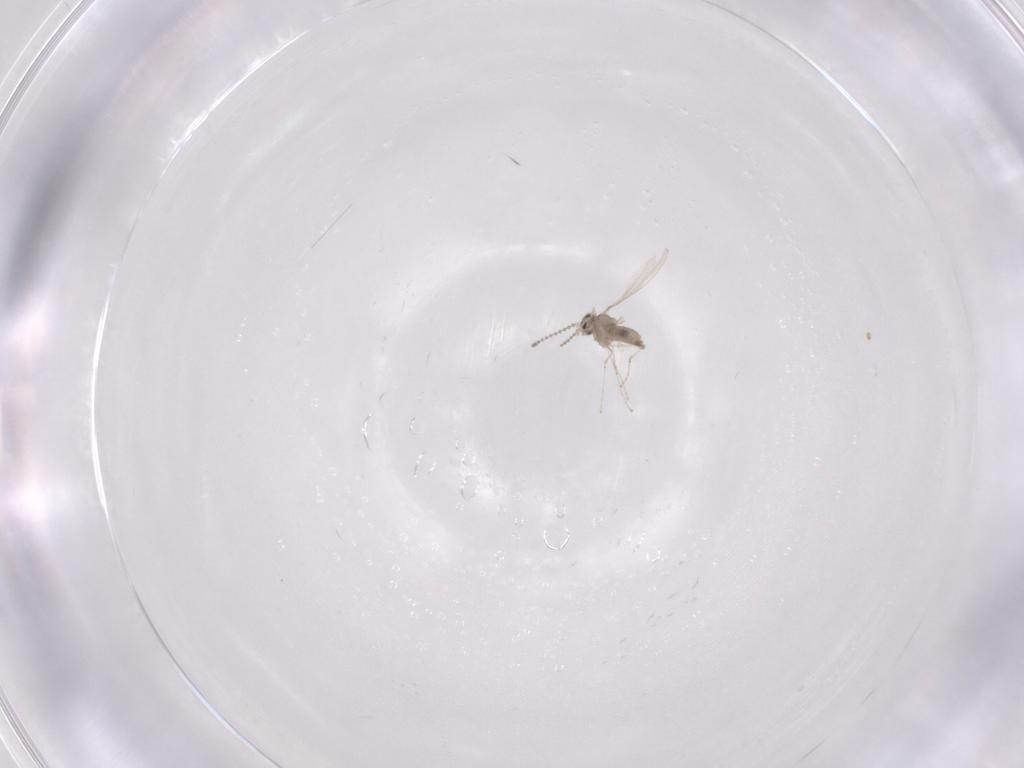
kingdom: Animalia
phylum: Arthropoda
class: Insecta
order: Diptera
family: Cecidomyiidae
